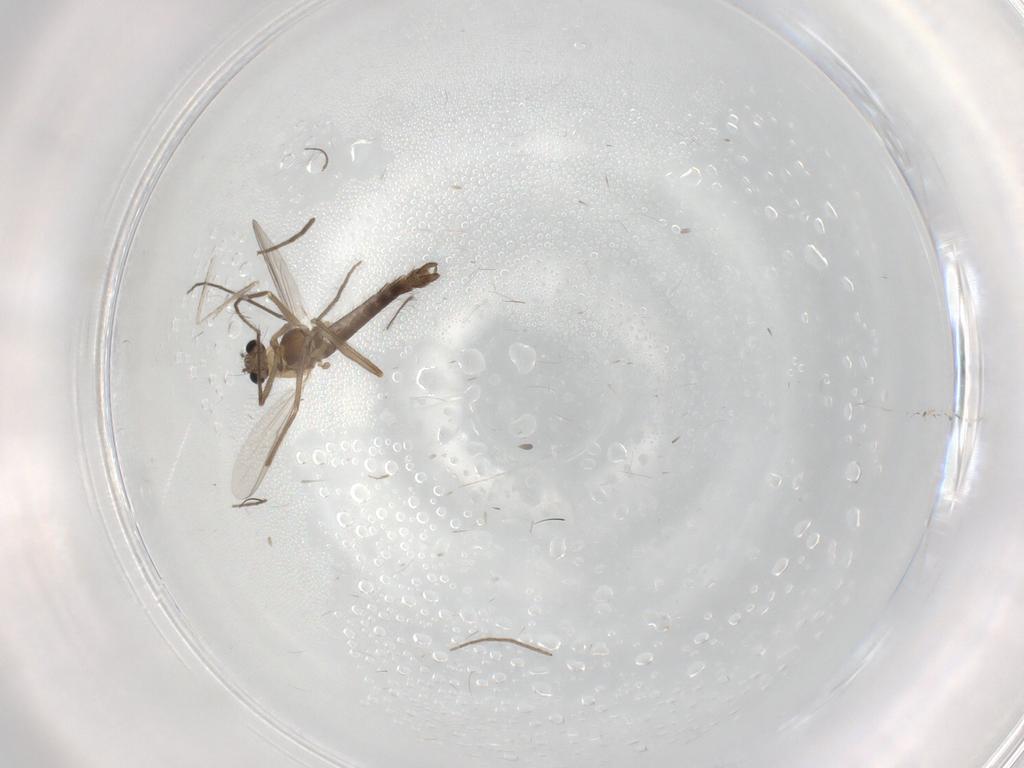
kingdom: Animalia
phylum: Arthropoda
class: Insecta
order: Diptera
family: Chironomidae
